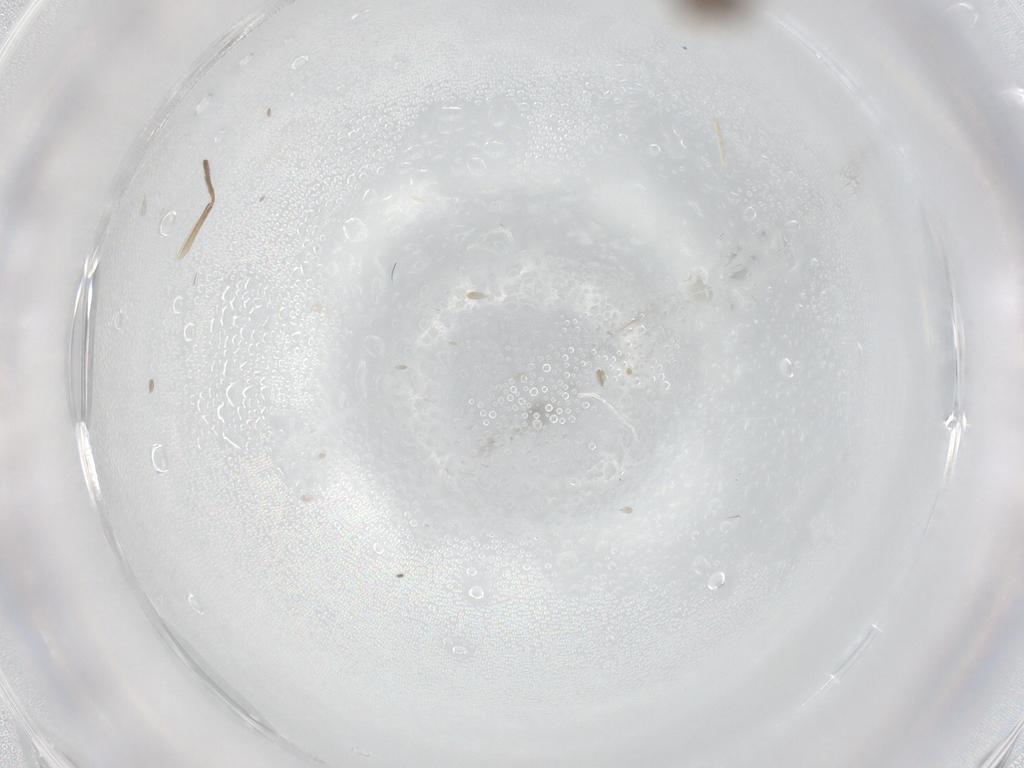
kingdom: Animalia
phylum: Arthropoda
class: Insecta
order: Diptera
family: Chironomidae
